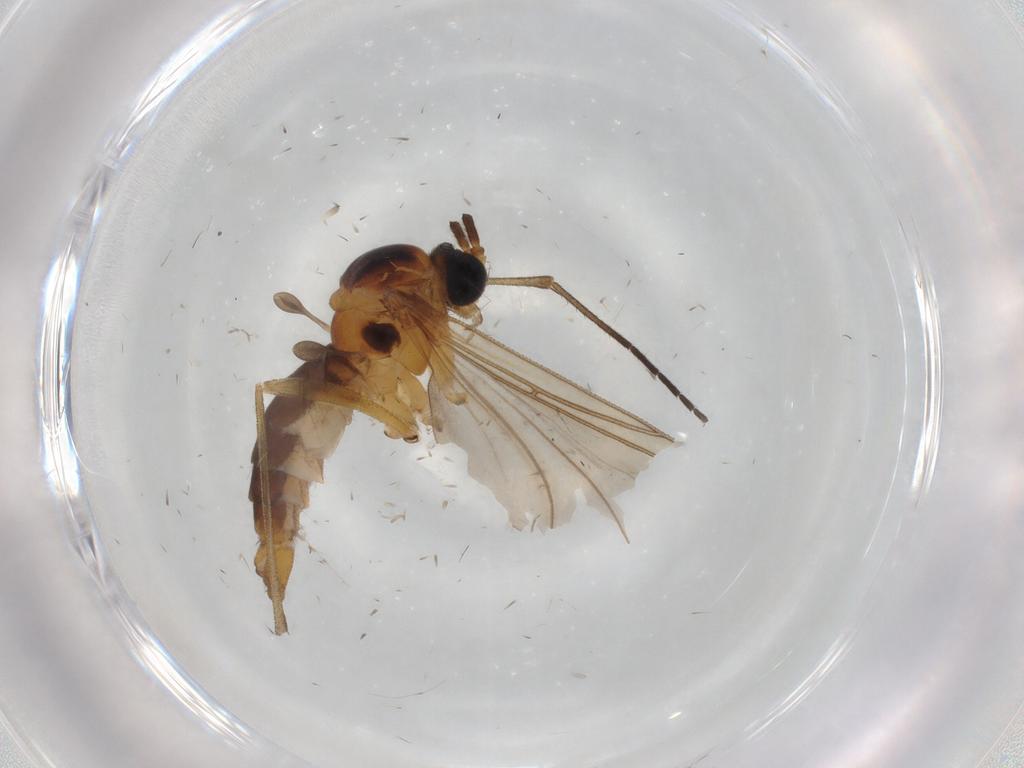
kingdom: Animalia
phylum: Arthropoda
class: Insecta
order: Diptera
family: Sciaridae
